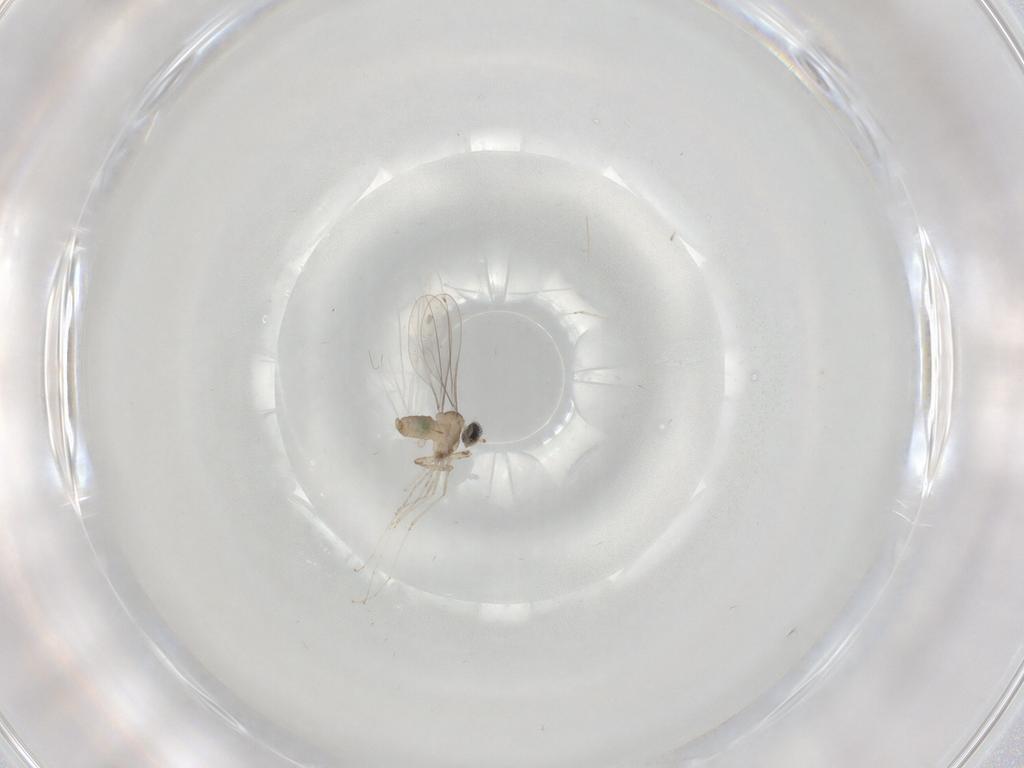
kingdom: Animalia
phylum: Arthropoda
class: Insecta
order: Diptera
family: Cecidomyiidae
